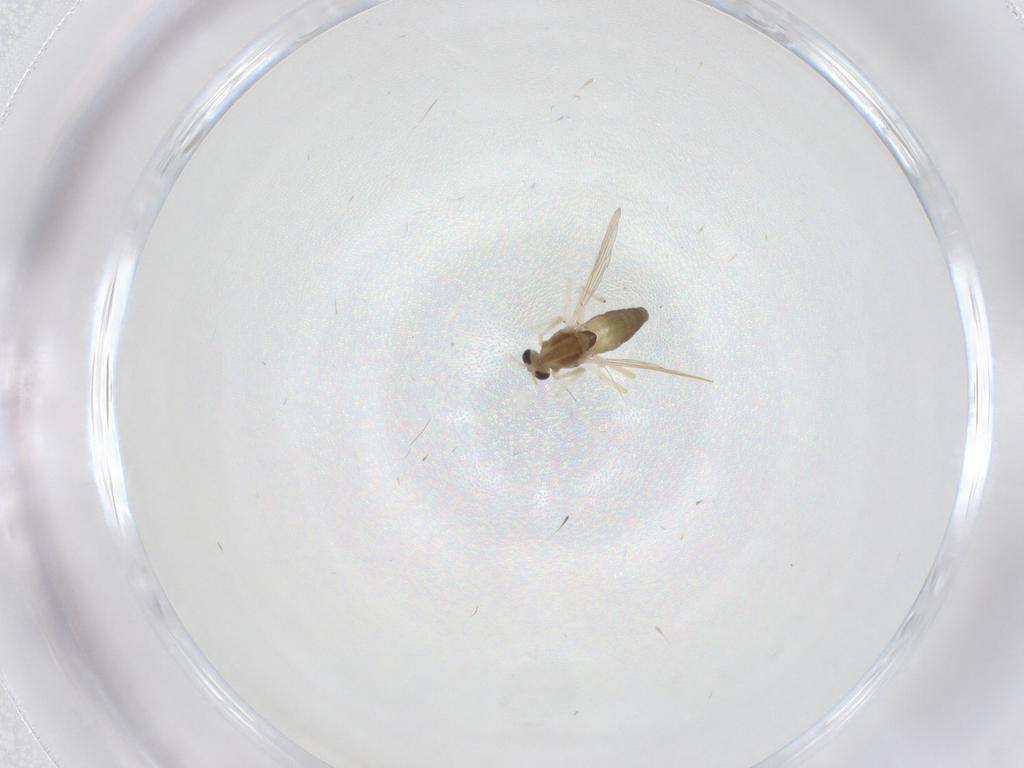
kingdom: Animalia
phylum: Arthropoda
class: Insecta
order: Diptera
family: Chironomidae
